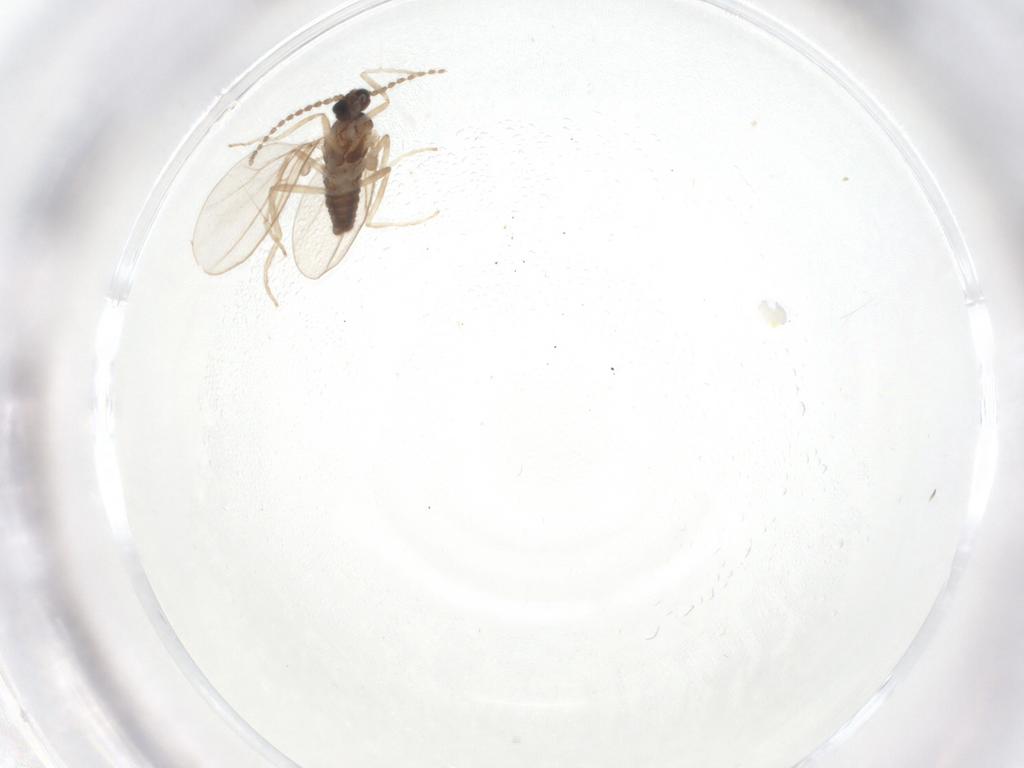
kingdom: Animalia
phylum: Arthropoda
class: Insecta
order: Diptera
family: Cecidomyiidae
